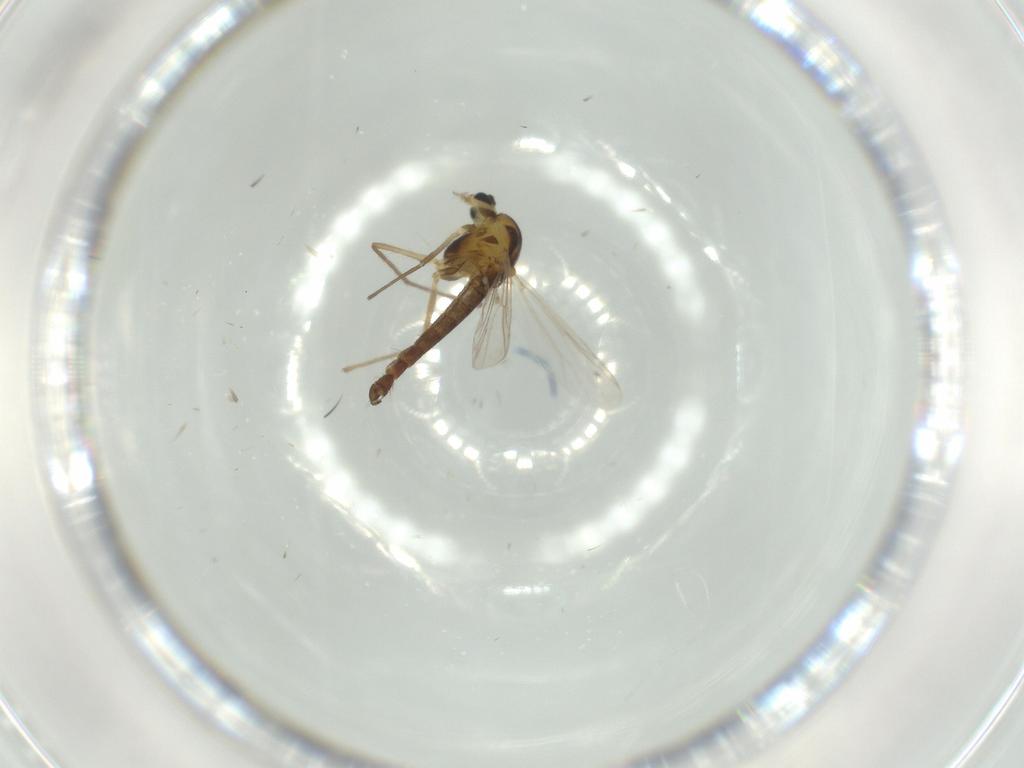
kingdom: Animalia
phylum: Arthropoda
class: Insecta
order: Diptera
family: Chironomidae
